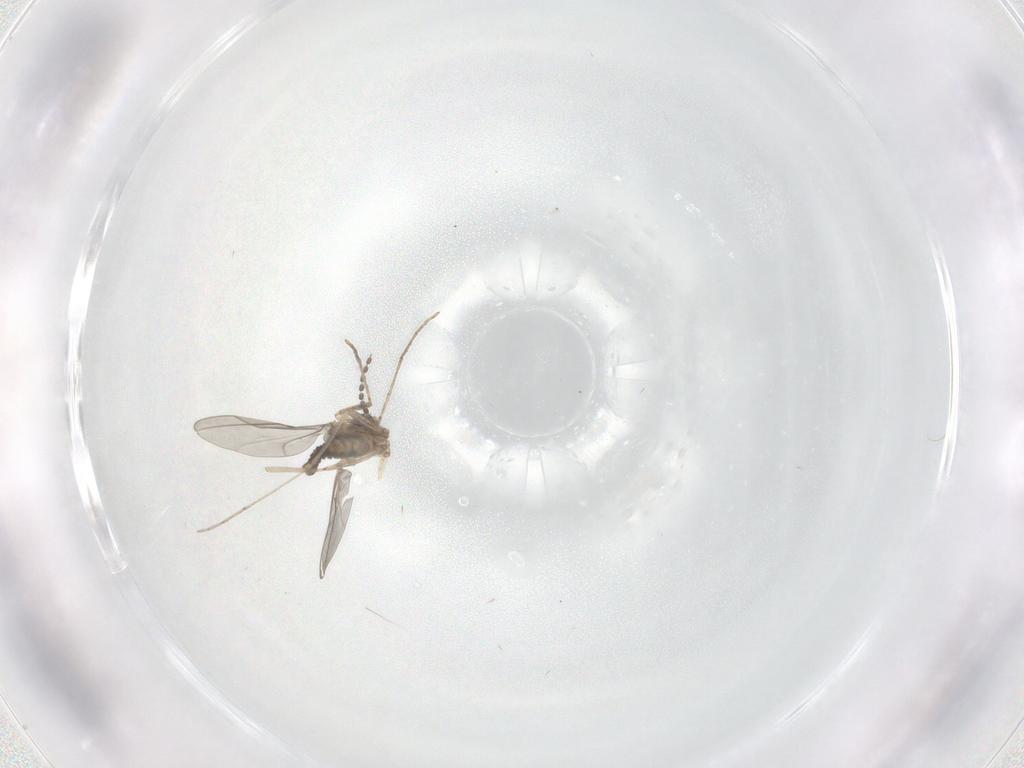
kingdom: Animalia
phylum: Arthropoda
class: Insecta
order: Diptera
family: Cecidomyiidae
